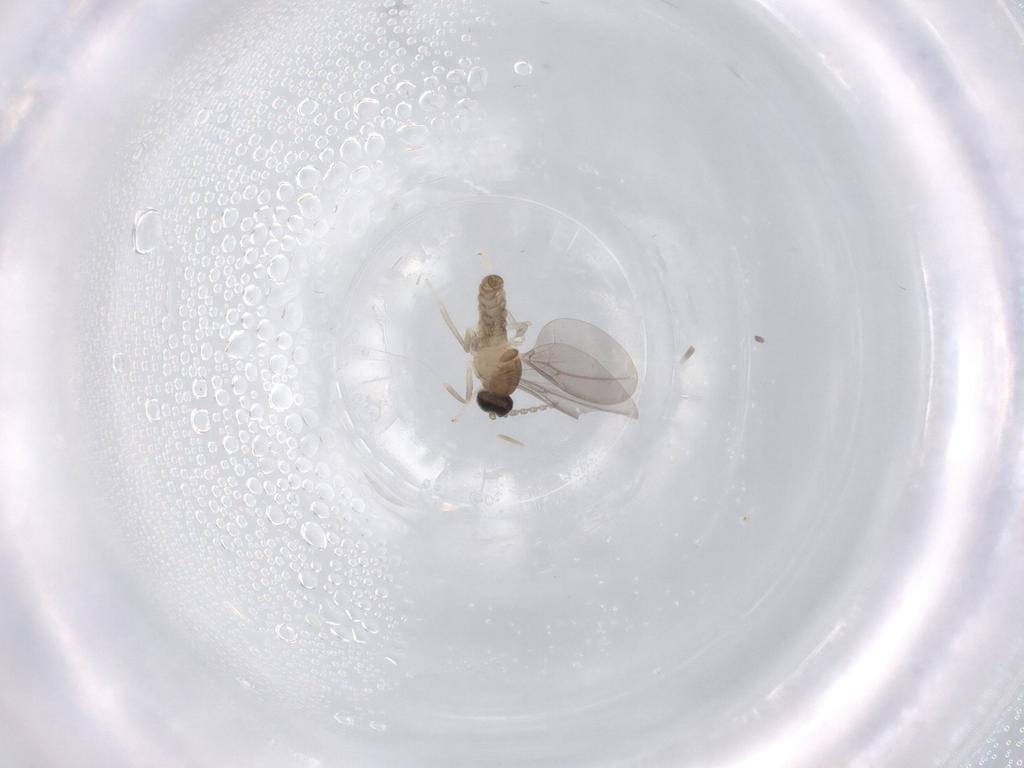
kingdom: Animalia
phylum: Arthropoda
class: Insecta
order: Diptera
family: Cecidomyiidae
